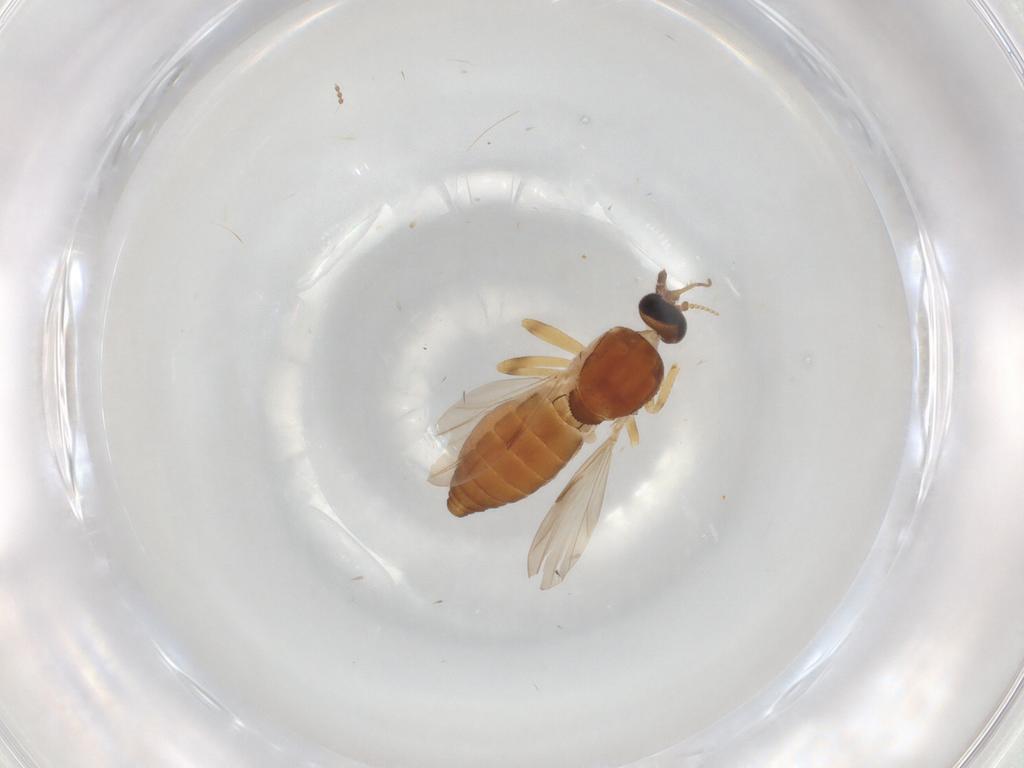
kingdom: Animalia
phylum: Arthropoda
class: Insecta
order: Diptera
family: Ceratopogonidae
